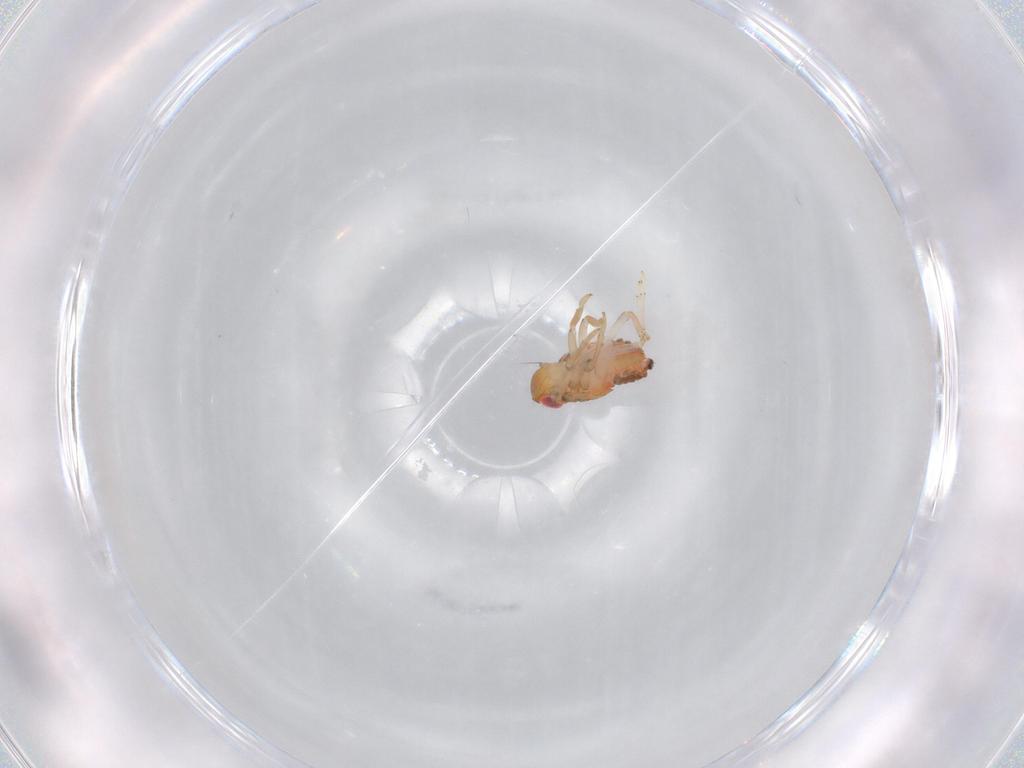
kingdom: Animalia
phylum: Arthropoda
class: Insecta
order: Hemiptera
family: Issidae
